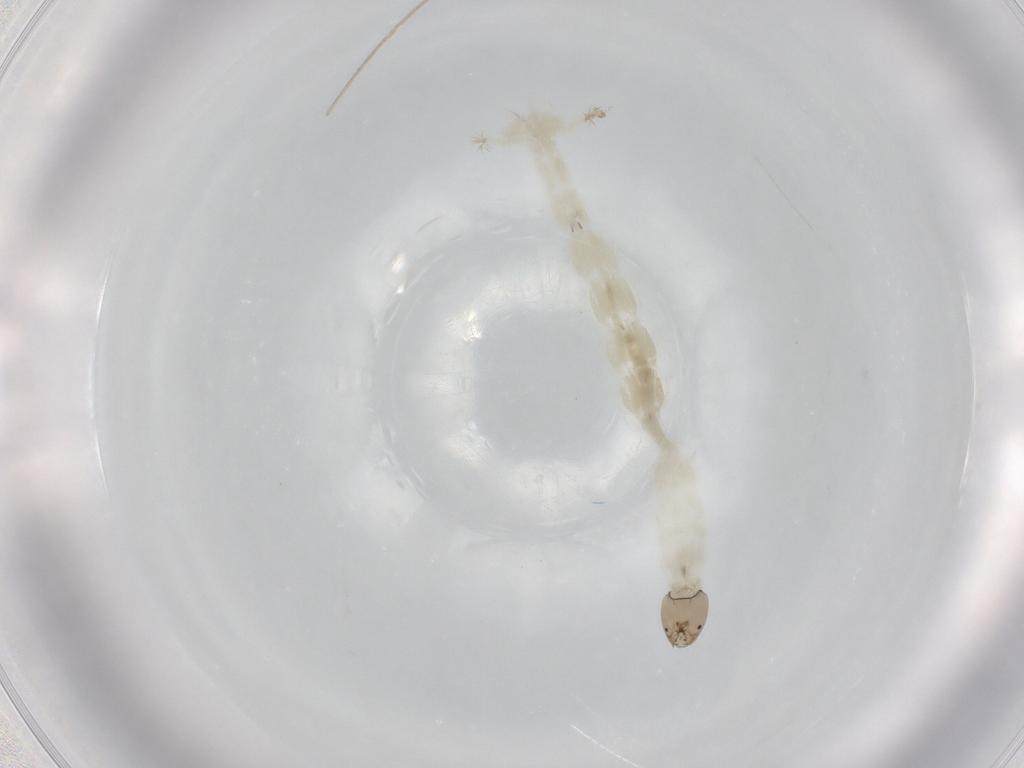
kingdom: Animalia
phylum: Arthropoda
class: Insecta
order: Diptera
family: Chironomidae
